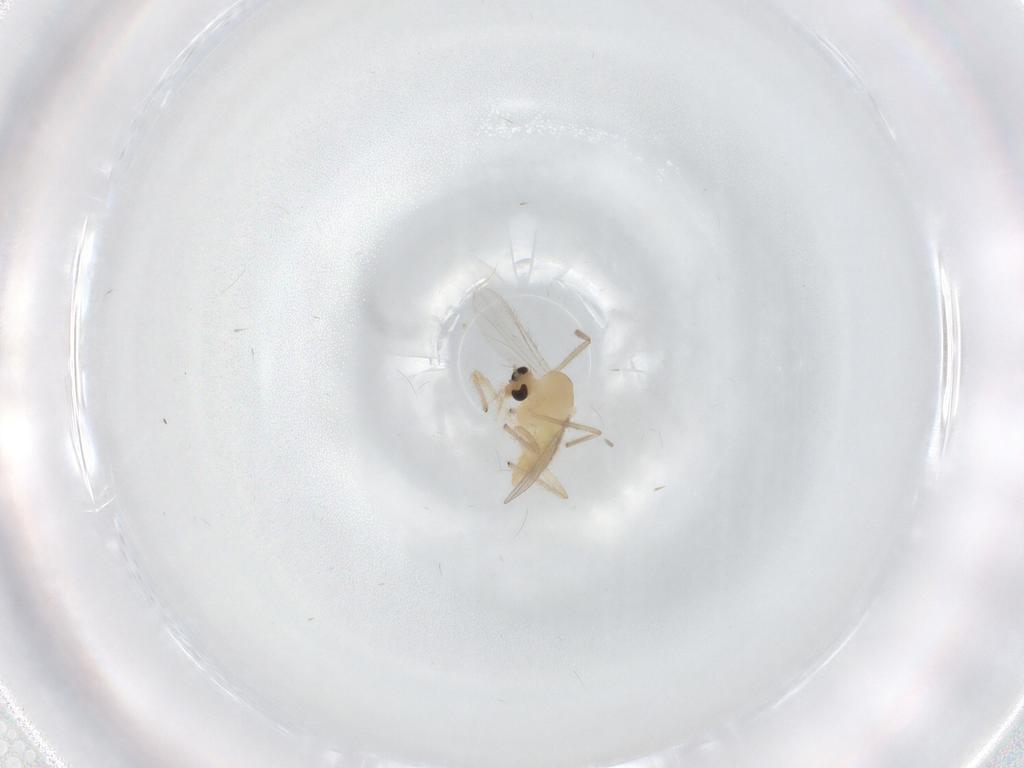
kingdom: Animalia
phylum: Arthropoda
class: Insecta
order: Diptera
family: Chironomidae
